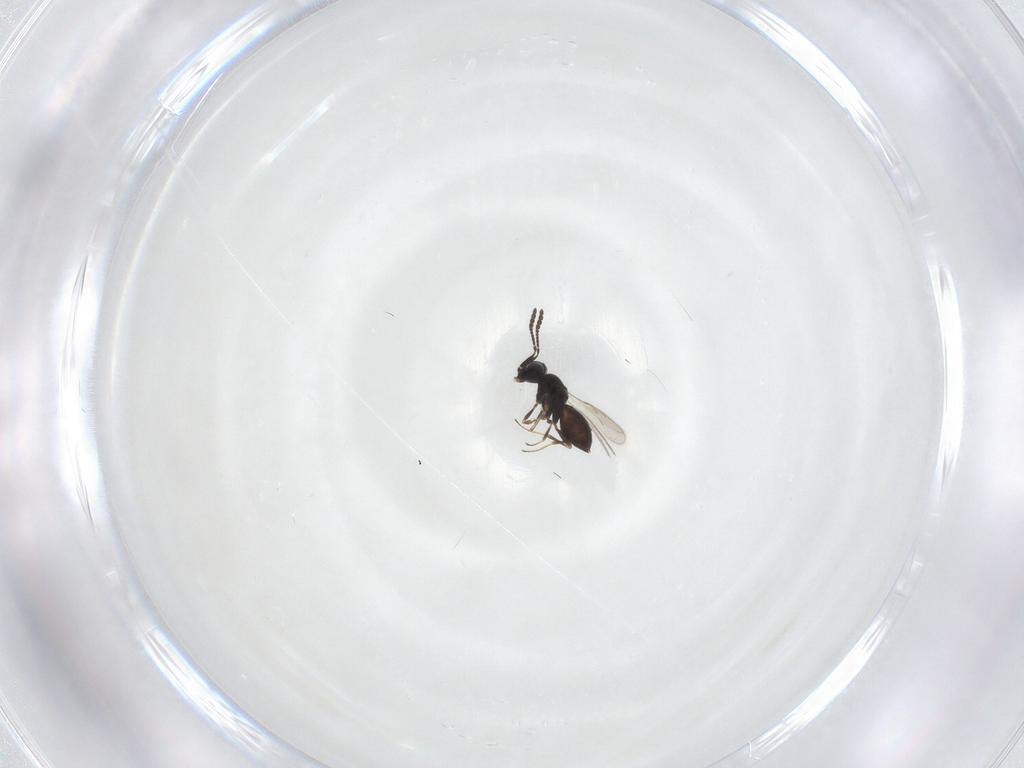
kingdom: Animalia
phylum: Arthropoda
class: Insecta
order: Hymenoptera
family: Scelionidae
